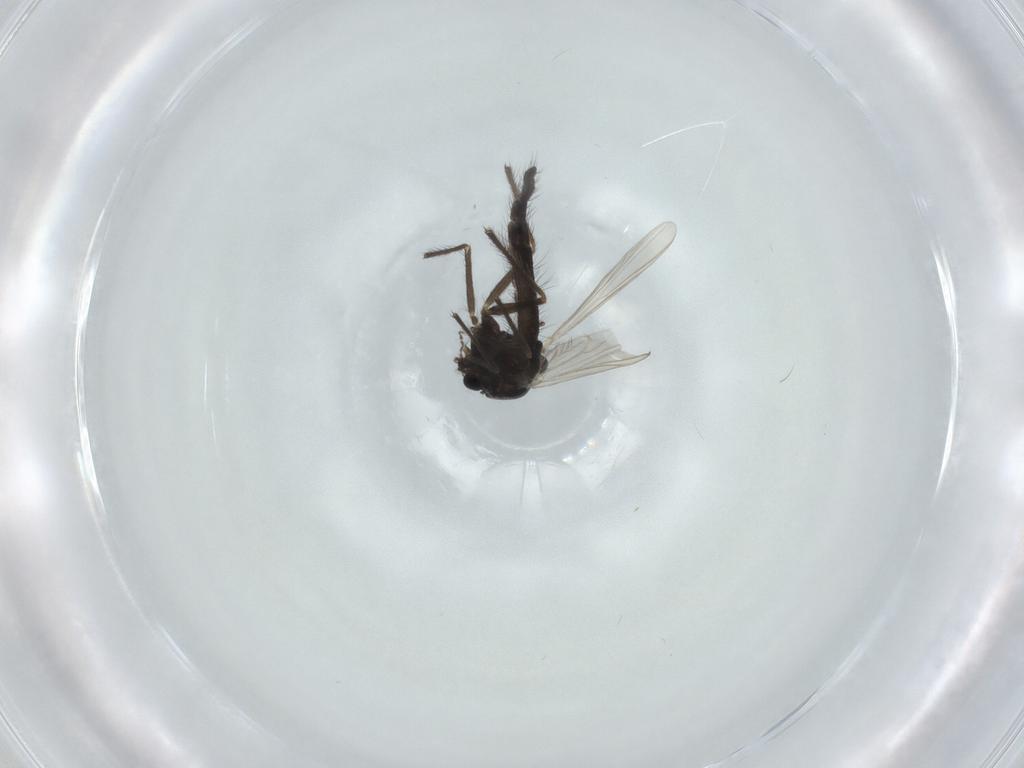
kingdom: Animalia
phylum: Arthropoda
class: Insecta
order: Diptera
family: Chironomidae
